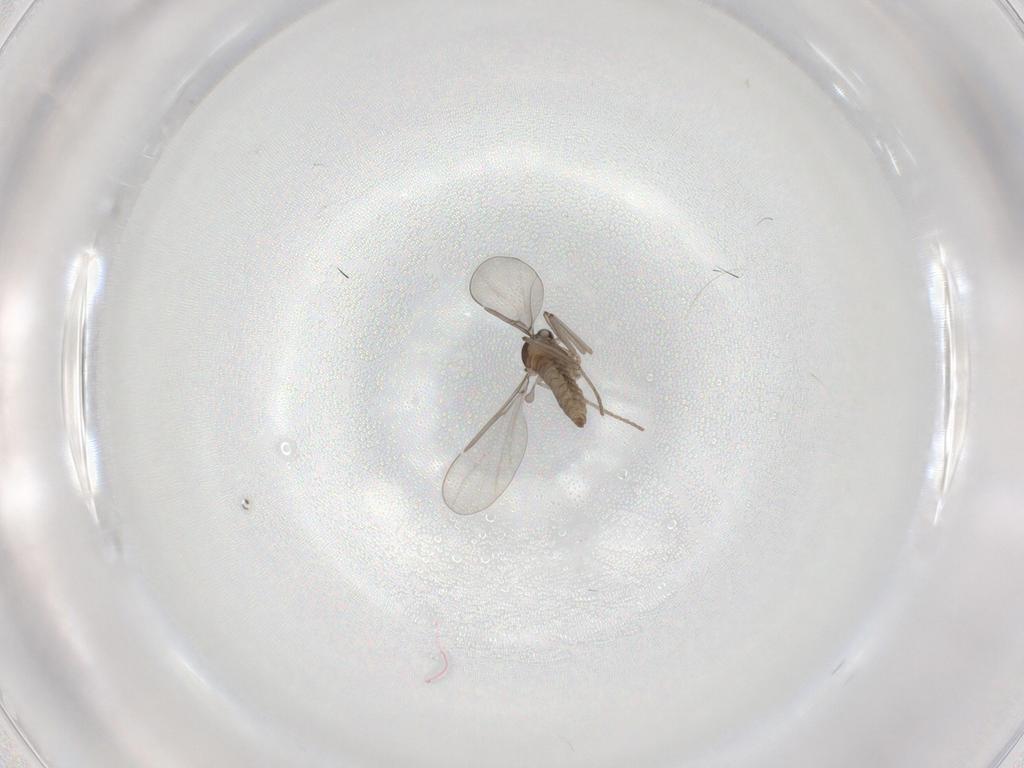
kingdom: Animalia
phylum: Arthropoda
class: Insecta
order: Diptera
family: Cecidomyiidae
